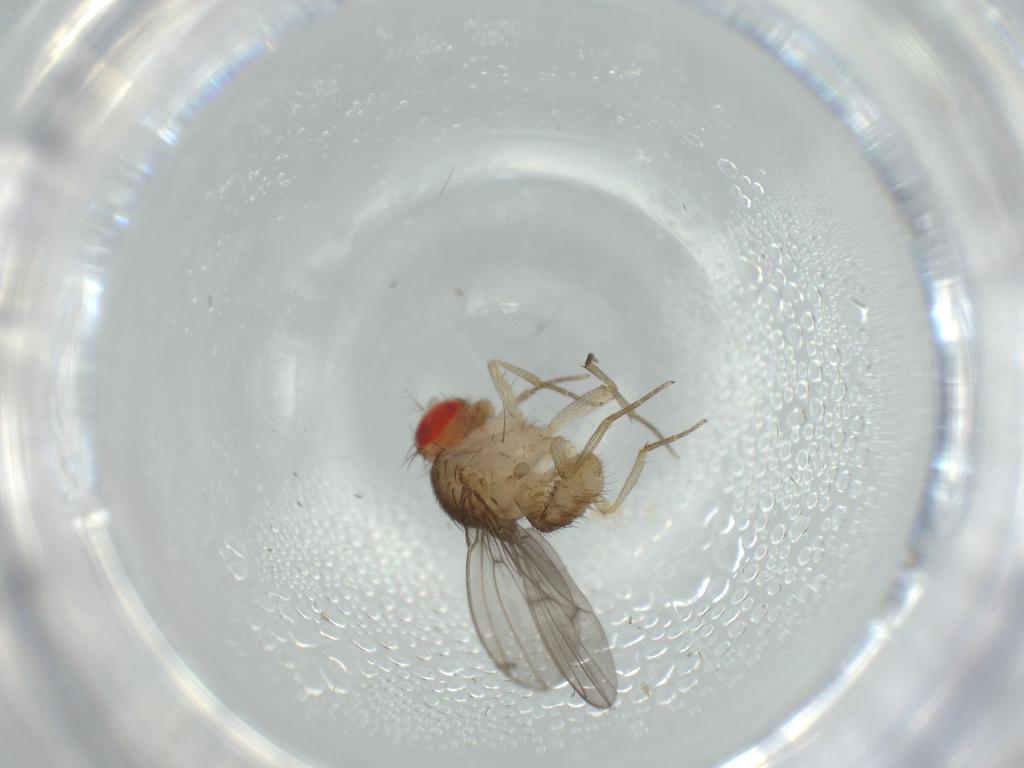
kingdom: Animalia
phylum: Arthropoda
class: Insecta
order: Diptera
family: Drosophilidae
